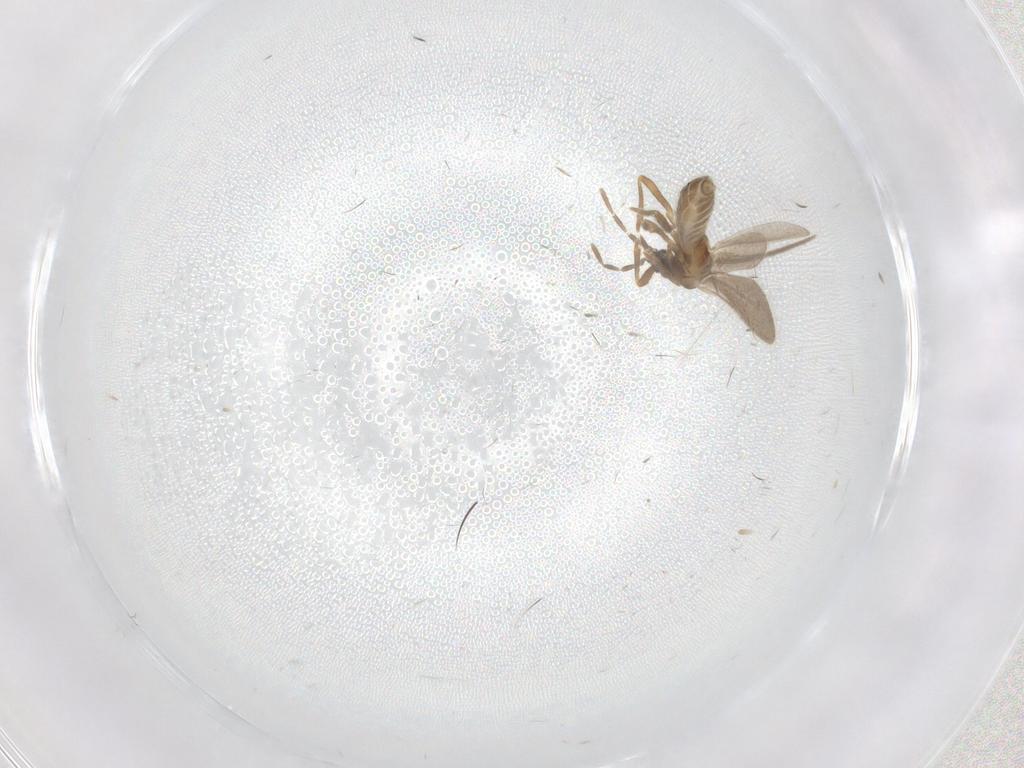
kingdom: Animalia
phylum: Arthropoda
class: Insecta
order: Hemiptera
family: Enicocephalidae
